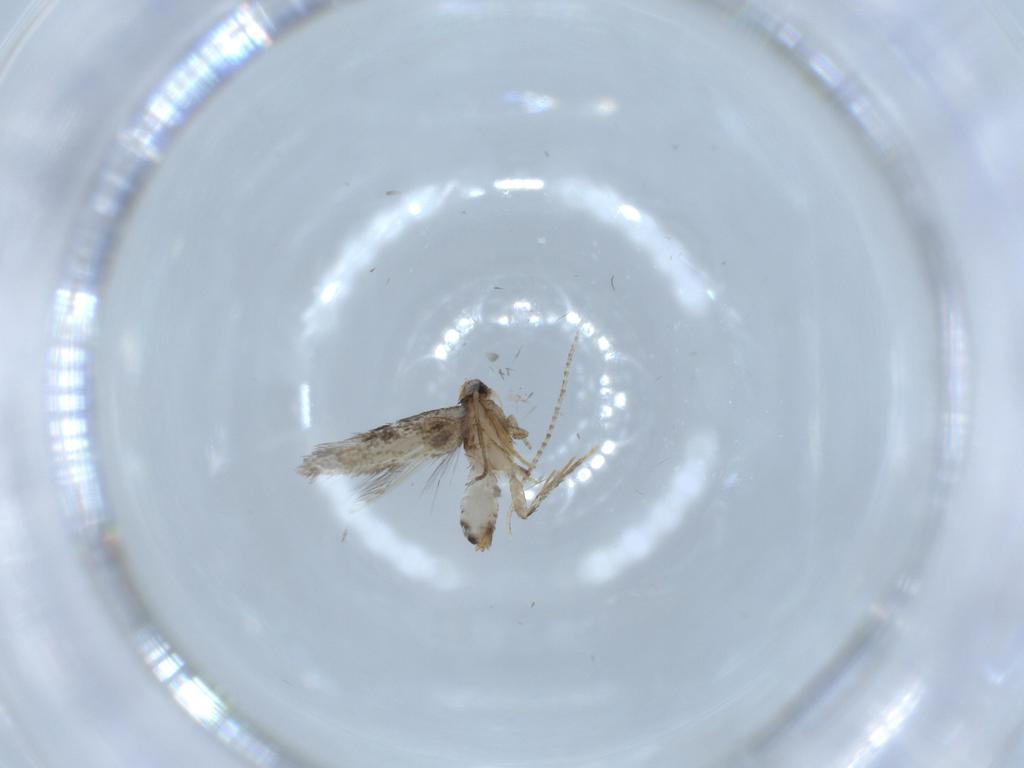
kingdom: Animalia
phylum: Arthropoda
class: Insecta
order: Lepidoptera
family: Nepticulidae
